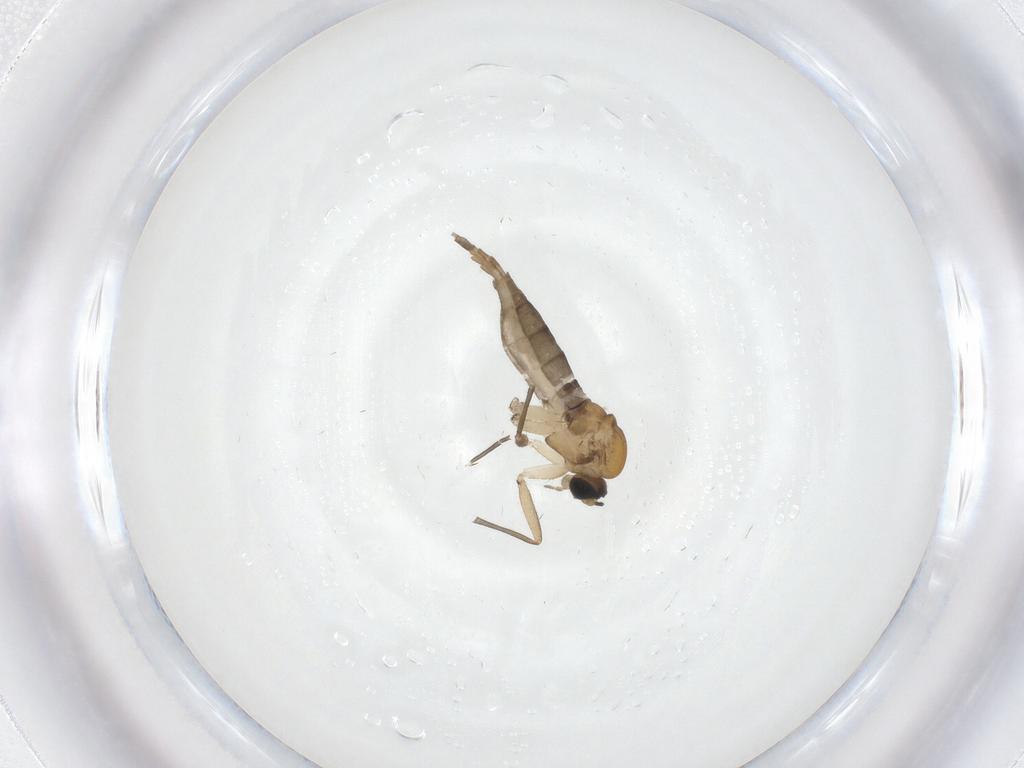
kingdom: Animalia
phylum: Arthropoda
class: Insecta
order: Diptera
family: Sciaridae
